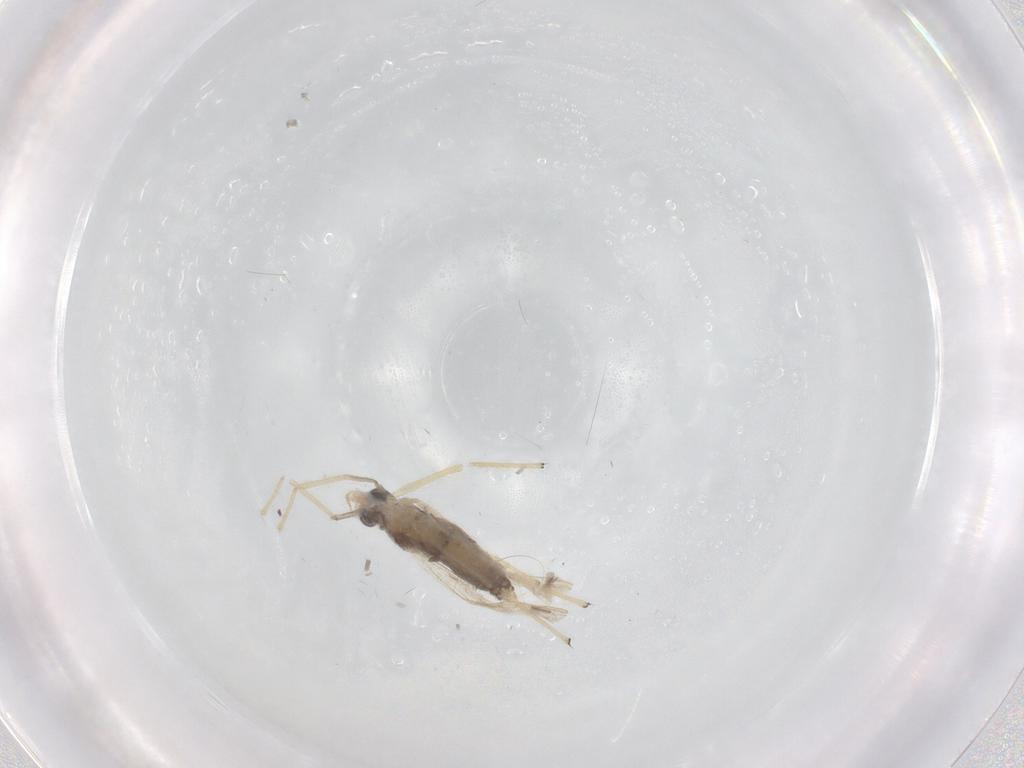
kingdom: Animalia
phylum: Arthropoda
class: Insecta
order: Diptera
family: Chironomidae
